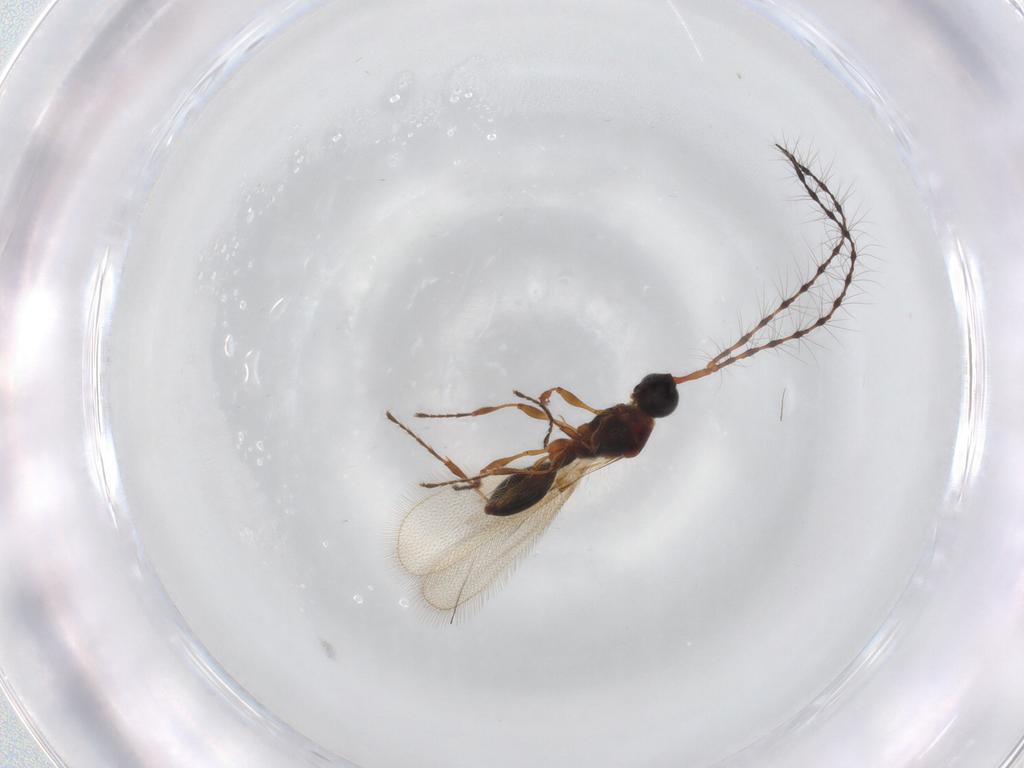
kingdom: Animalia
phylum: Arthropoda
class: Insecta
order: Hymenoptera
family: Diapriidae
